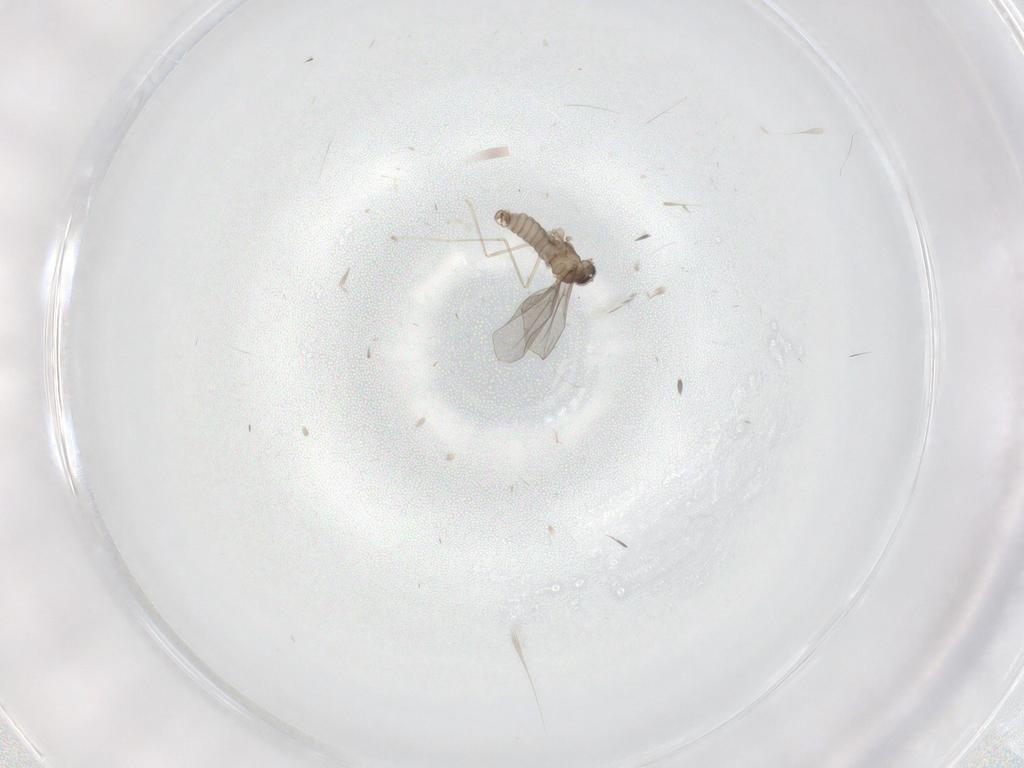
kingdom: Animalia
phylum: Arthropoda
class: Insecta
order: Diptera
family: Cecidomyiidae
